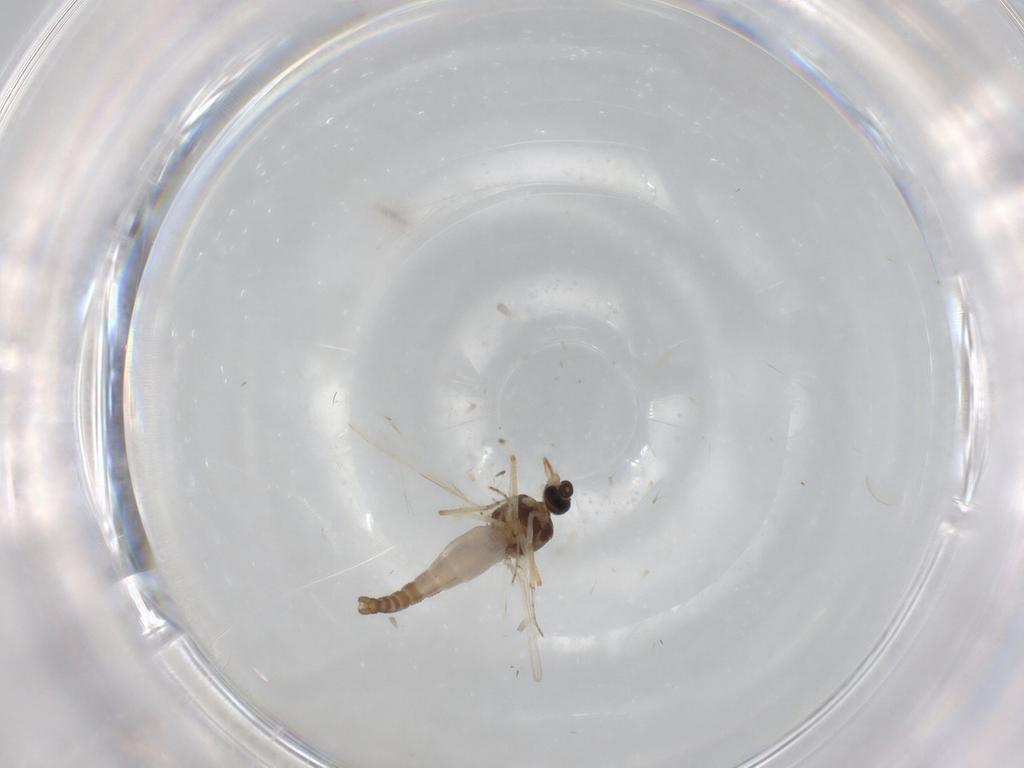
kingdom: Animalia
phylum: Arthropoda
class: Insecta
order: Diptera
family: Ceratopogonidae
